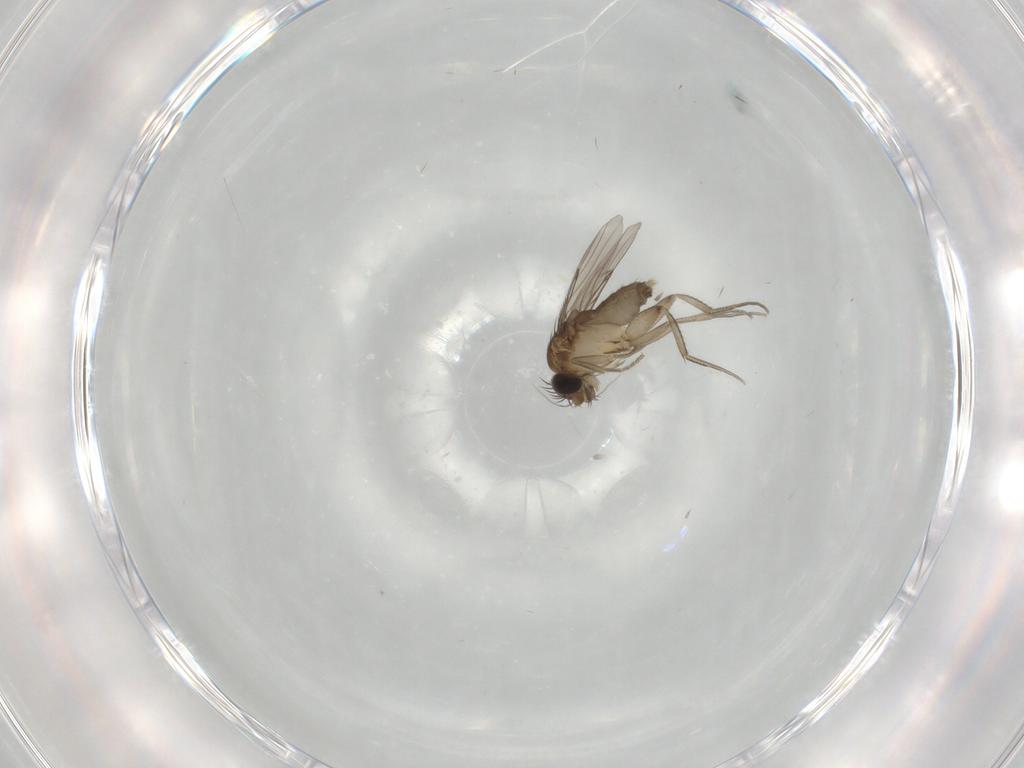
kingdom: Animalia
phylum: Arthropoda
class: Insecta
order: Diptera
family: Phoridae
